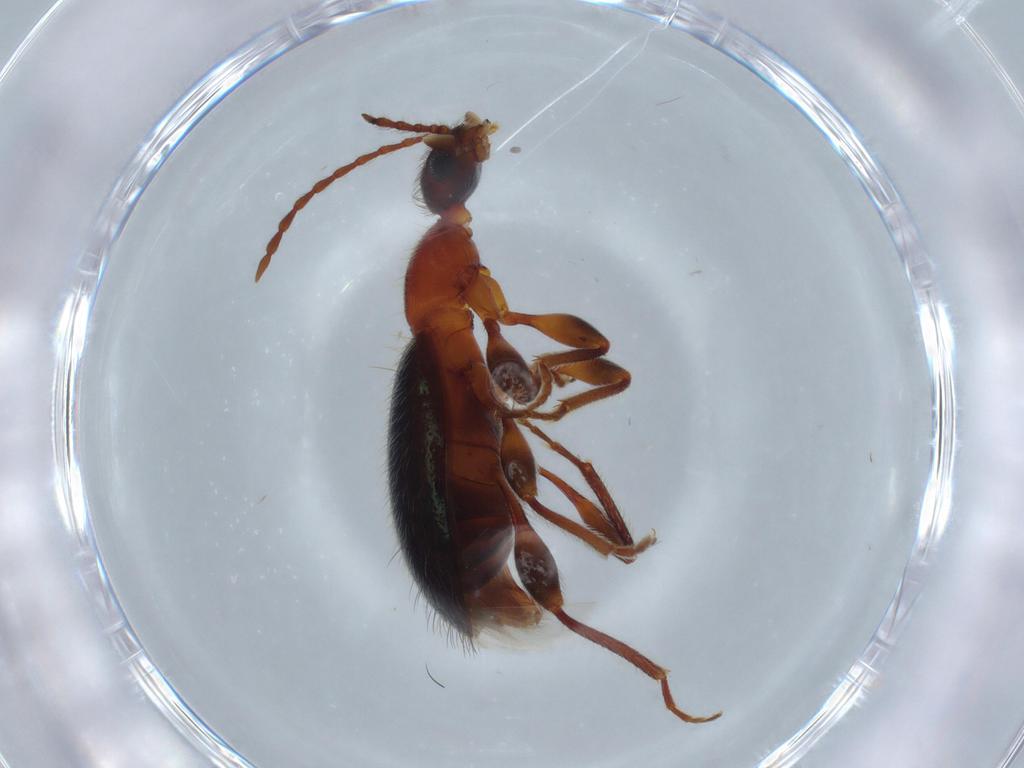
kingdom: Animalia
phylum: Arthropoda
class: Insecta
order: Coleoptera
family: Anthicidae
